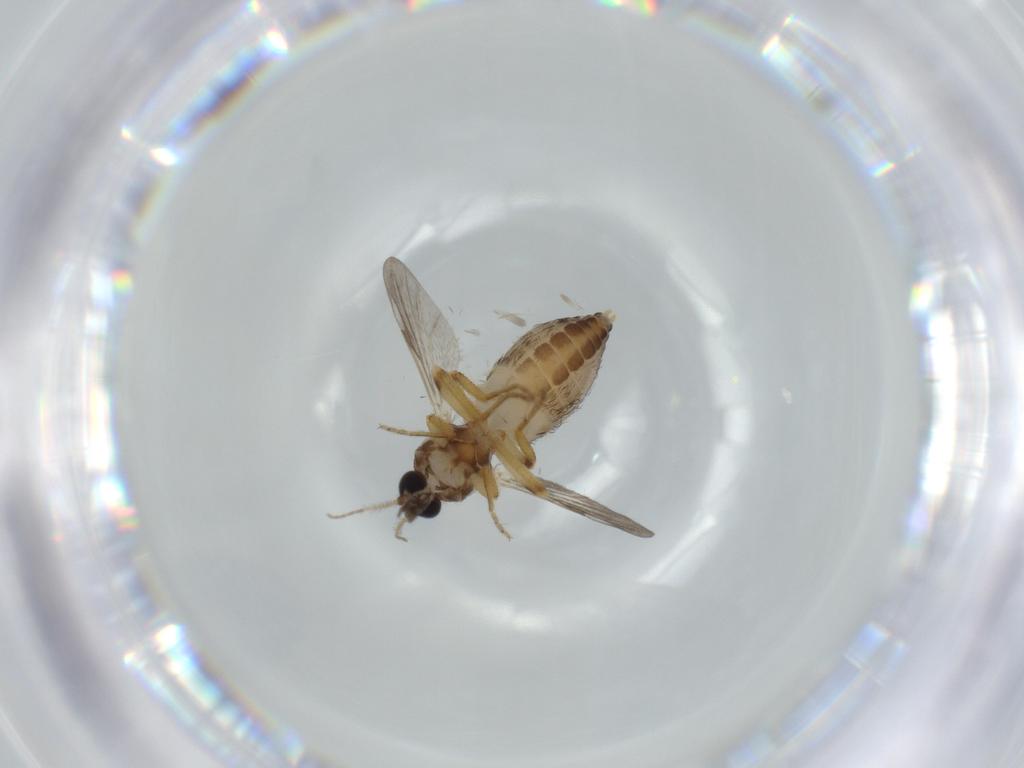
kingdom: Animalia
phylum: Arthropoda
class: Insecta
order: Diptera
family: Ceratopogonidae
